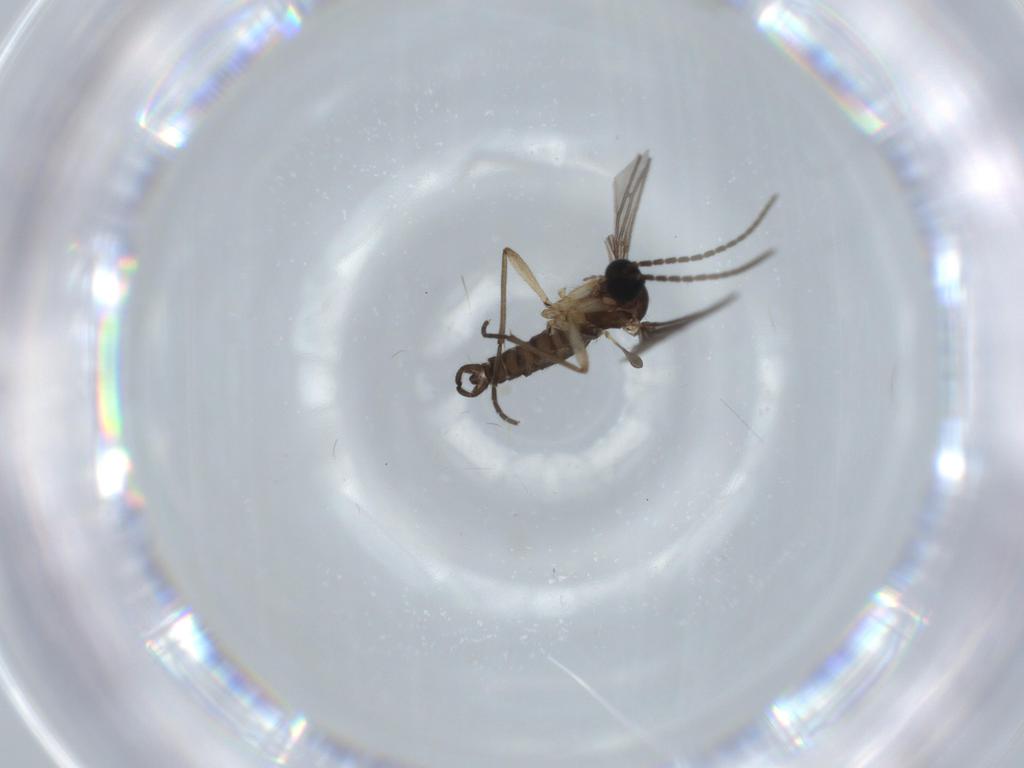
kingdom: Animalia
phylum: Arthropoda
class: Insecta
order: Diptera
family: Sciaridae
